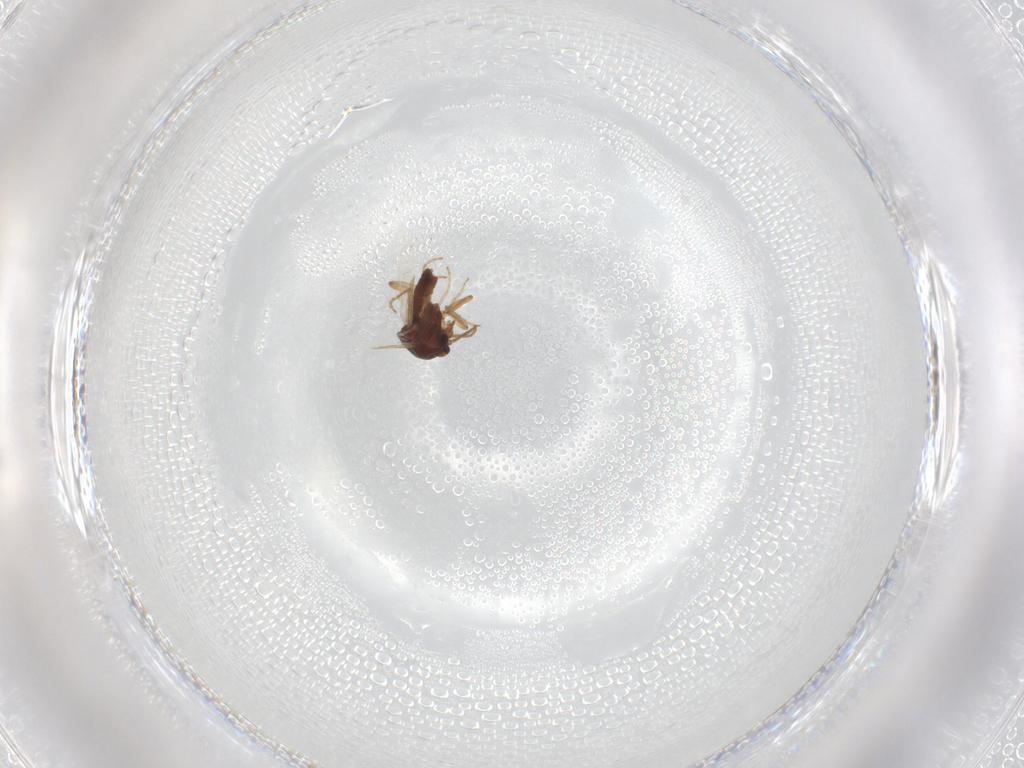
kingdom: Animalia
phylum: Arthropoda
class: Insecta
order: Diptera
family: Ceratopogonidae
